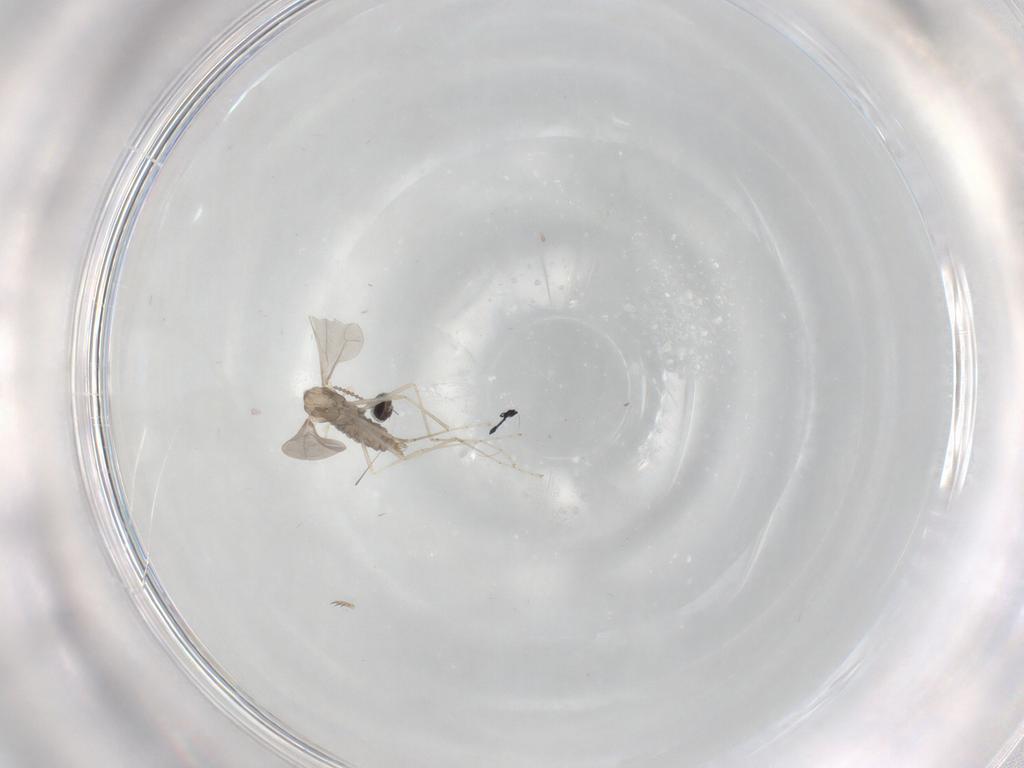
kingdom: Animalia
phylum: Arthropoda
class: Insecta
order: Diptera
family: Cecidomyiidae
